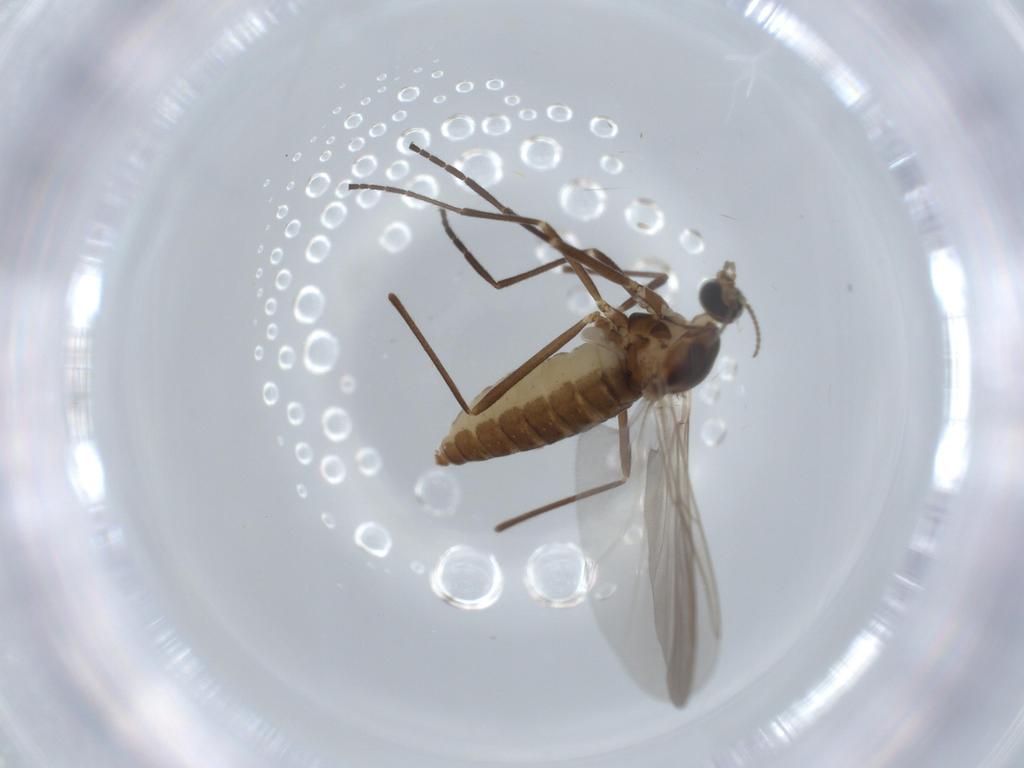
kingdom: Animalia
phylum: Arthropoda
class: Insecta
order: Diptera
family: Cecidomyiidae
